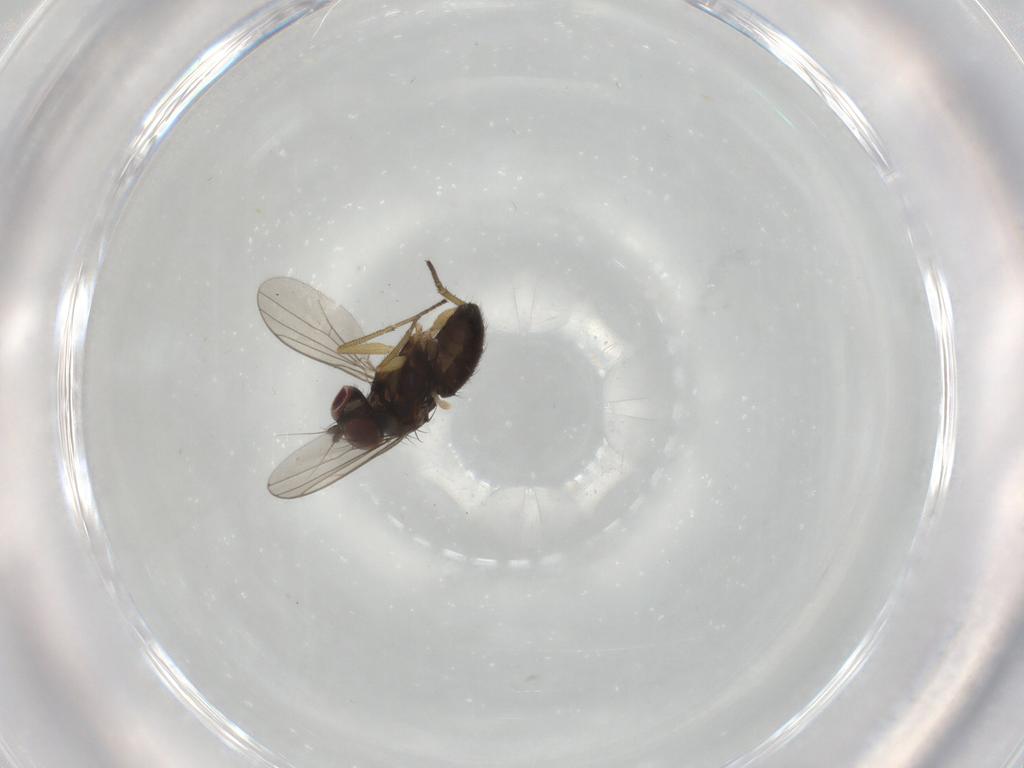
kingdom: Animalia
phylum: Arthropoda
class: Insecta
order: Diptera
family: Dolichopodidae
